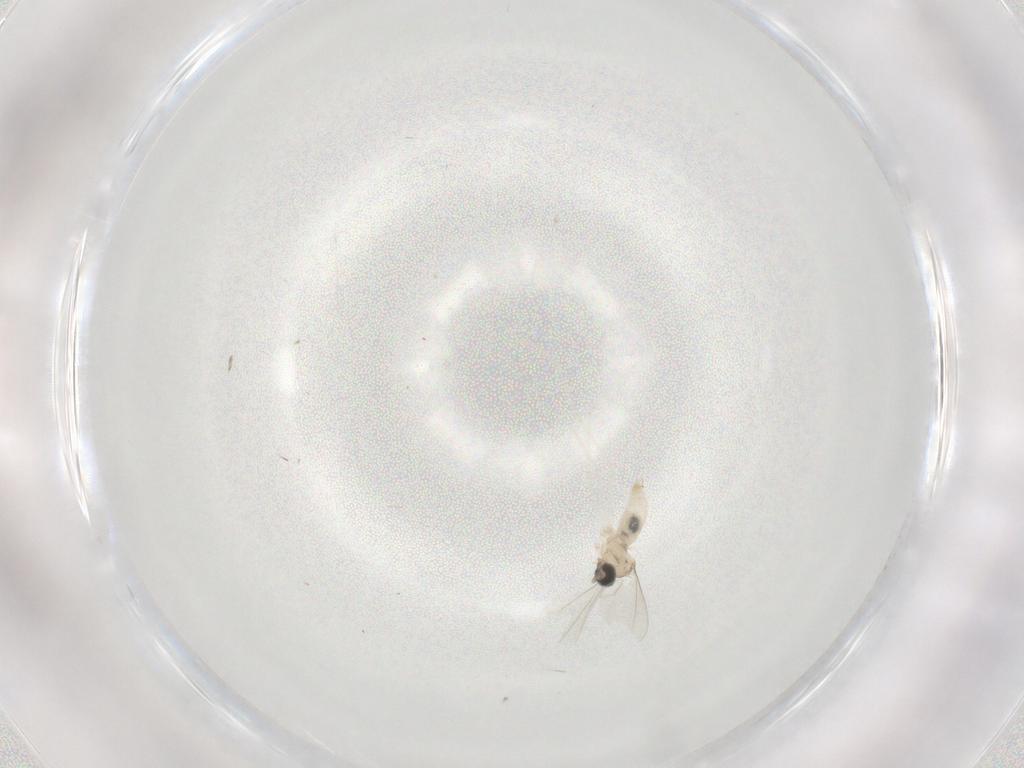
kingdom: Animalia
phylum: Arthropoda
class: Insecta
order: Diptera
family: Cecidomyiidae
